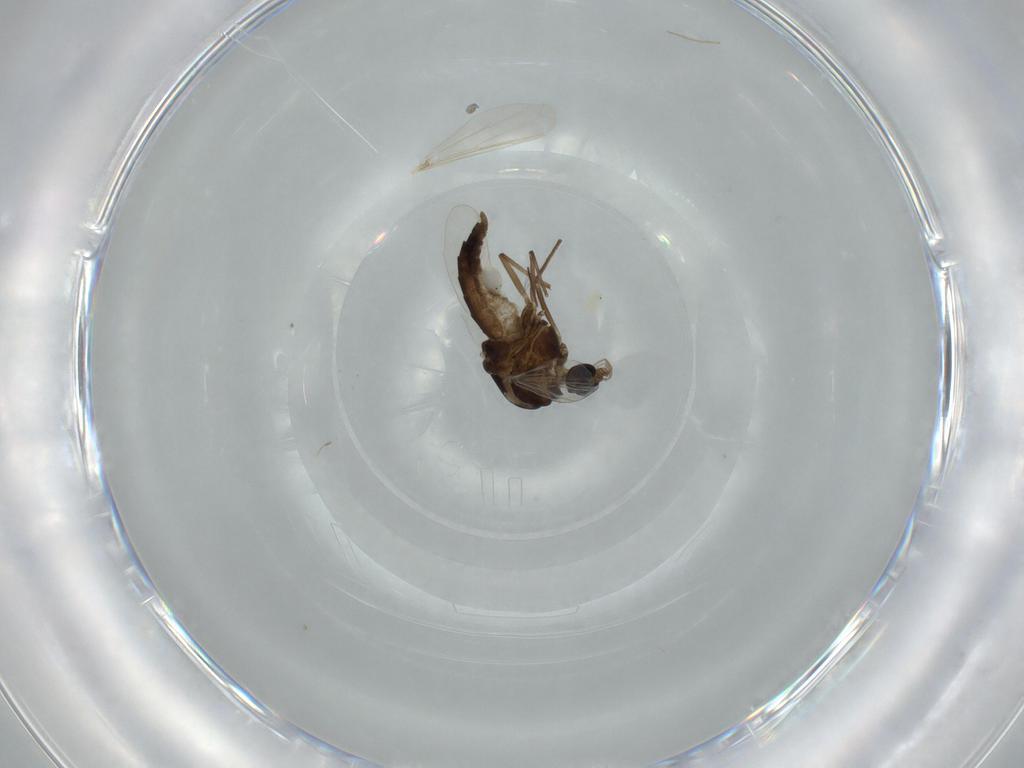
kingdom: Animalia
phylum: Arthropoda
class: Insecta
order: Diptera
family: Chironomidae
